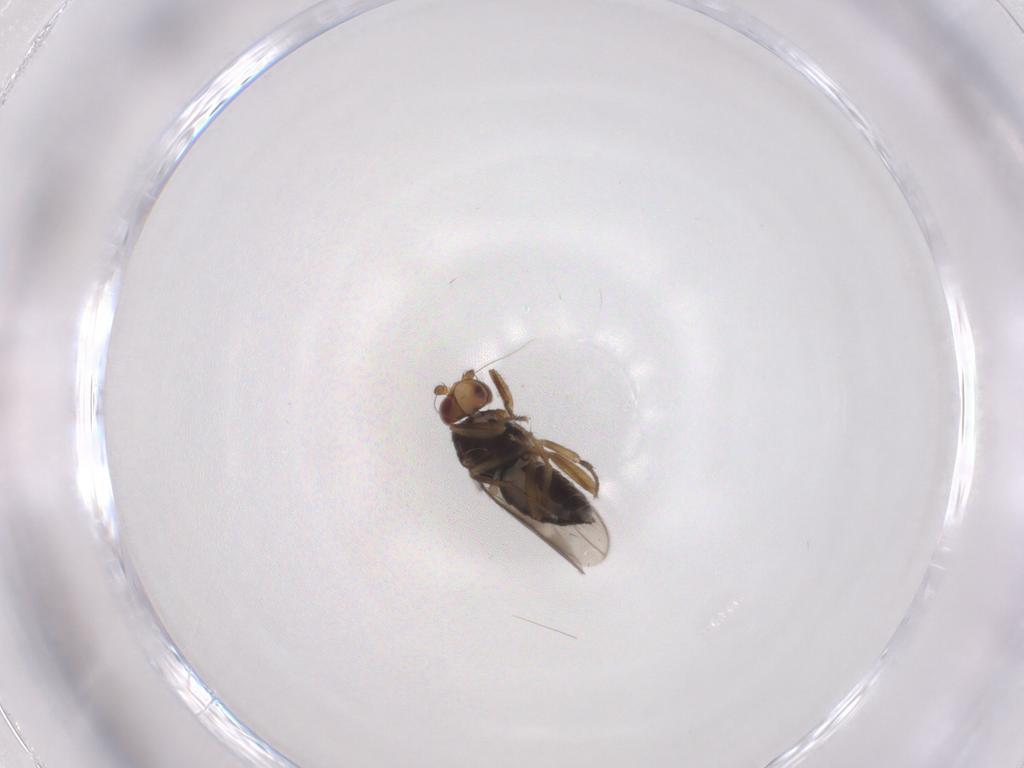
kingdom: Animalia
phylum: Arthropoda
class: Insecta
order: Diptera
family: Sphaeroceridae
